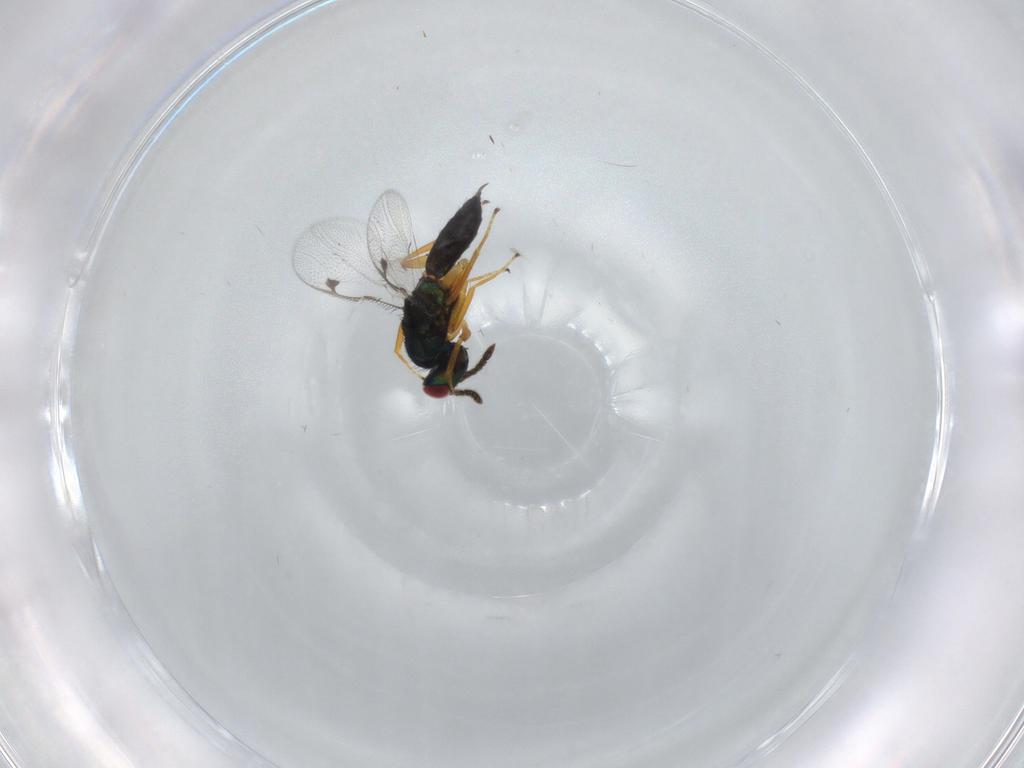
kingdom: Animalia
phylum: Arthropoda
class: Insecta
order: Hymenoptera
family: Pteromalidae
